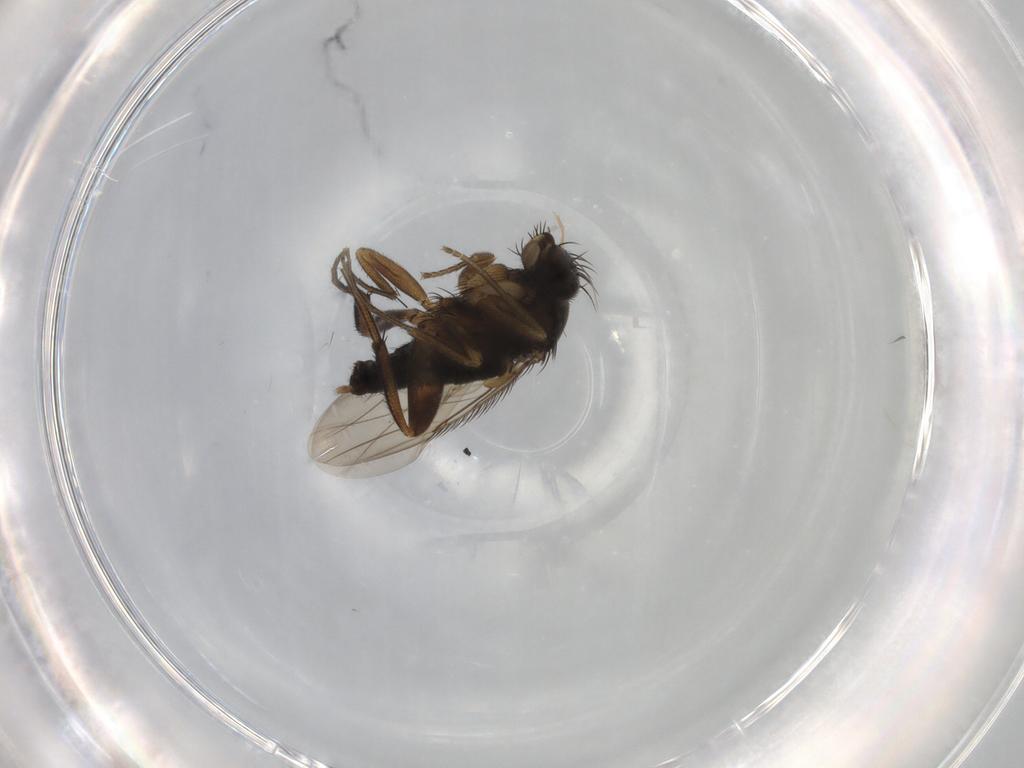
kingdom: Animalia
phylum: Arthropoda
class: Insecta
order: Diptera
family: Phoridae
